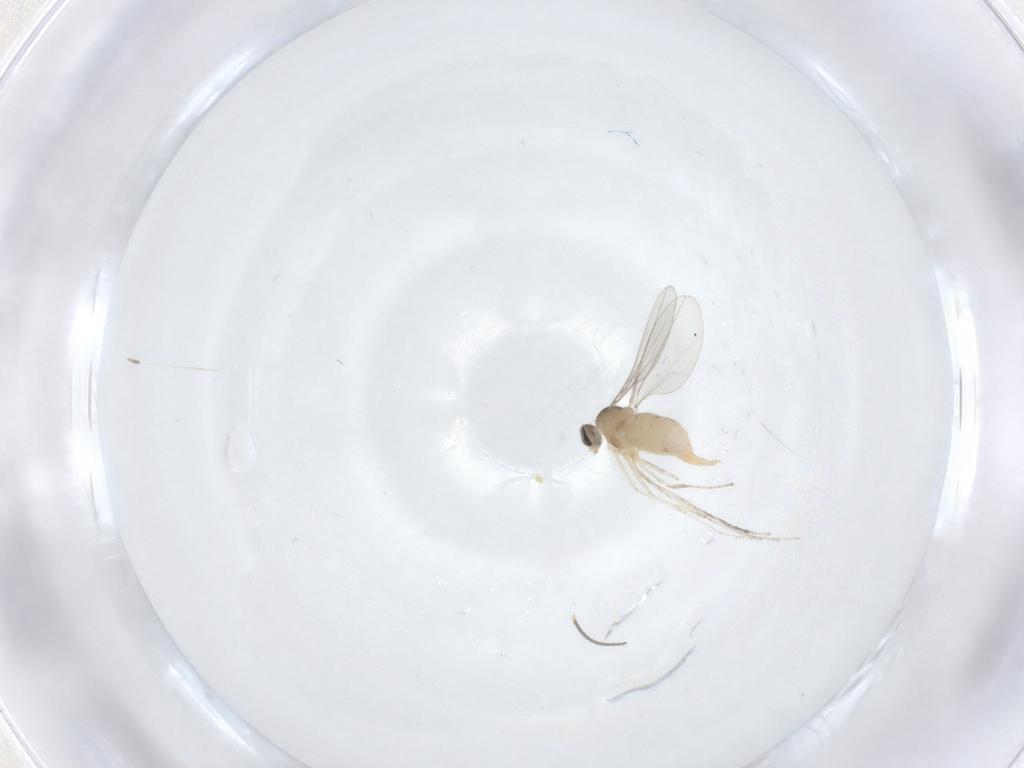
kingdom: Animalia
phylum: Arthropoda
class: Insecta
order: Diptera
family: Cecidomyiidae
